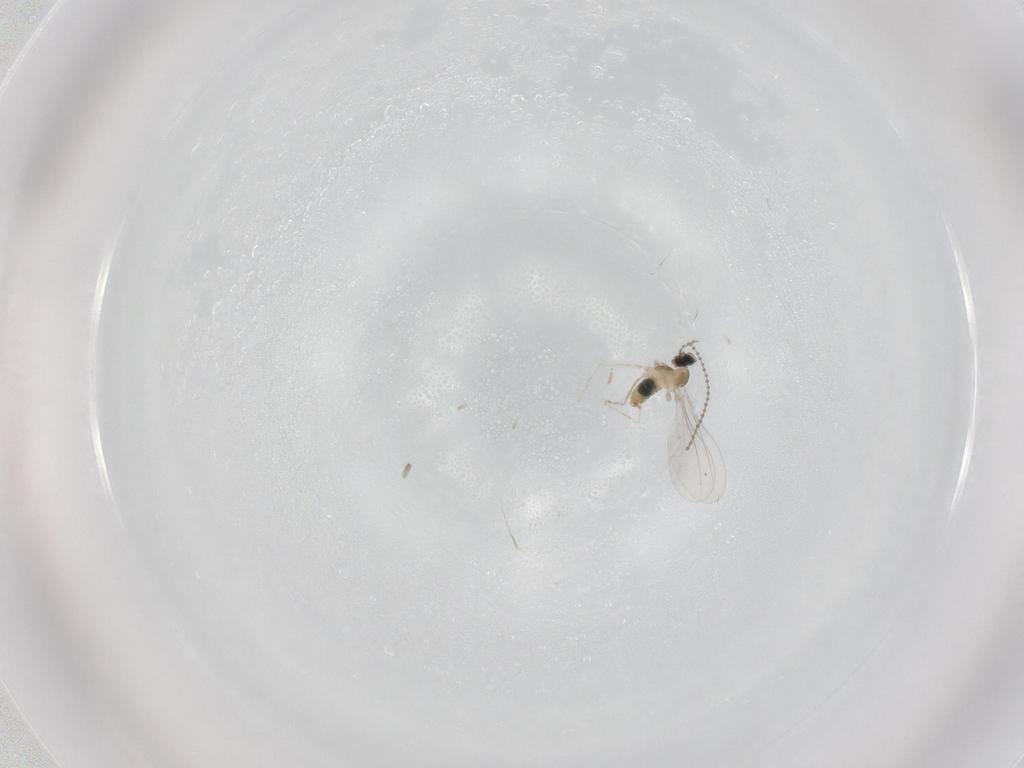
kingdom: Animalia
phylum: Arthropoda
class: Insecta
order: Diptera
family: Cecidomyiidae
